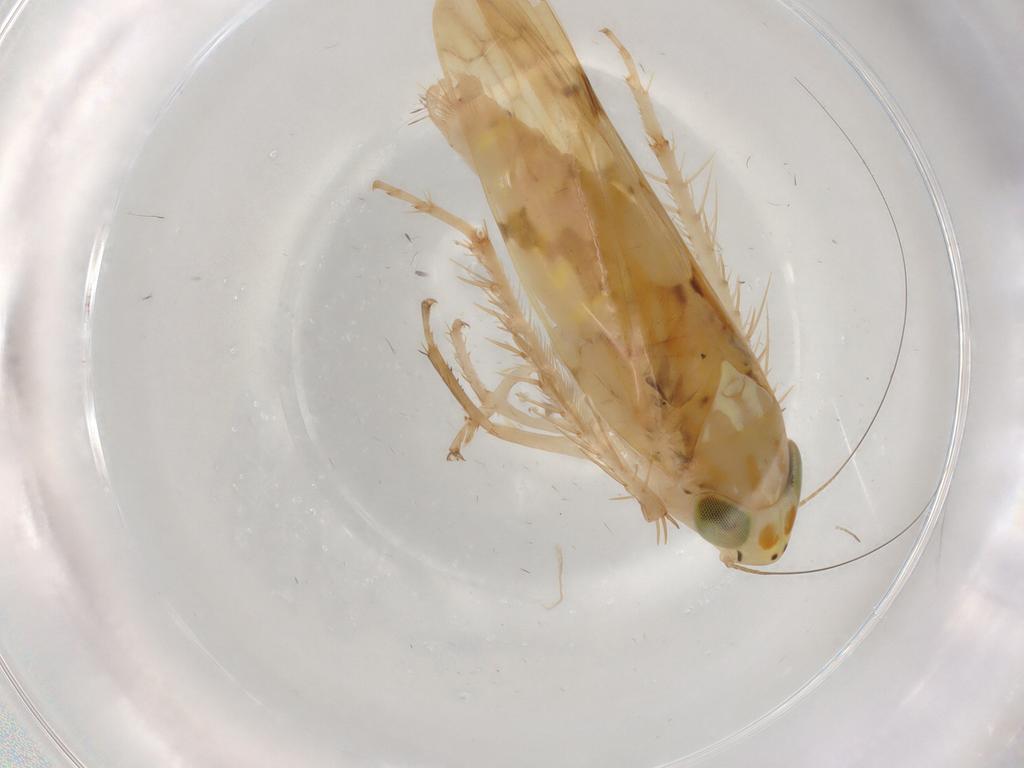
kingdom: Animalia
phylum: Arthropoda
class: Insecta
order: Hemiptera
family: Cicadellidae
